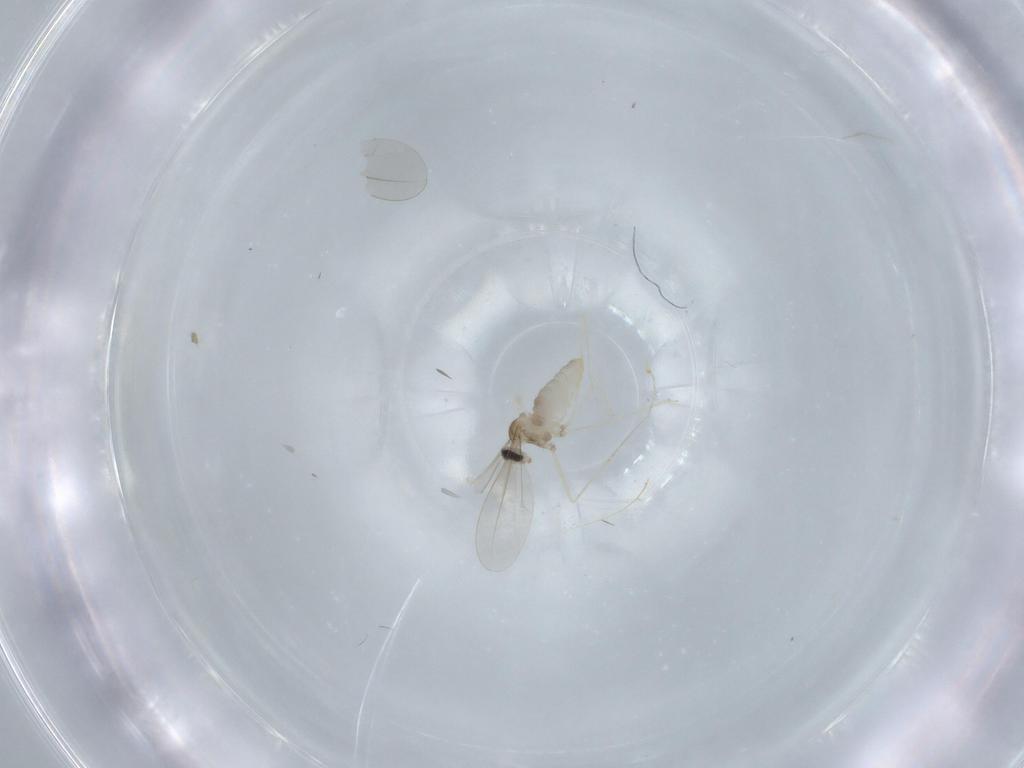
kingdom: Animalia
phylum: Arthropoda
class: Insecta
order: Diptera
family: Cecidomyiidae
